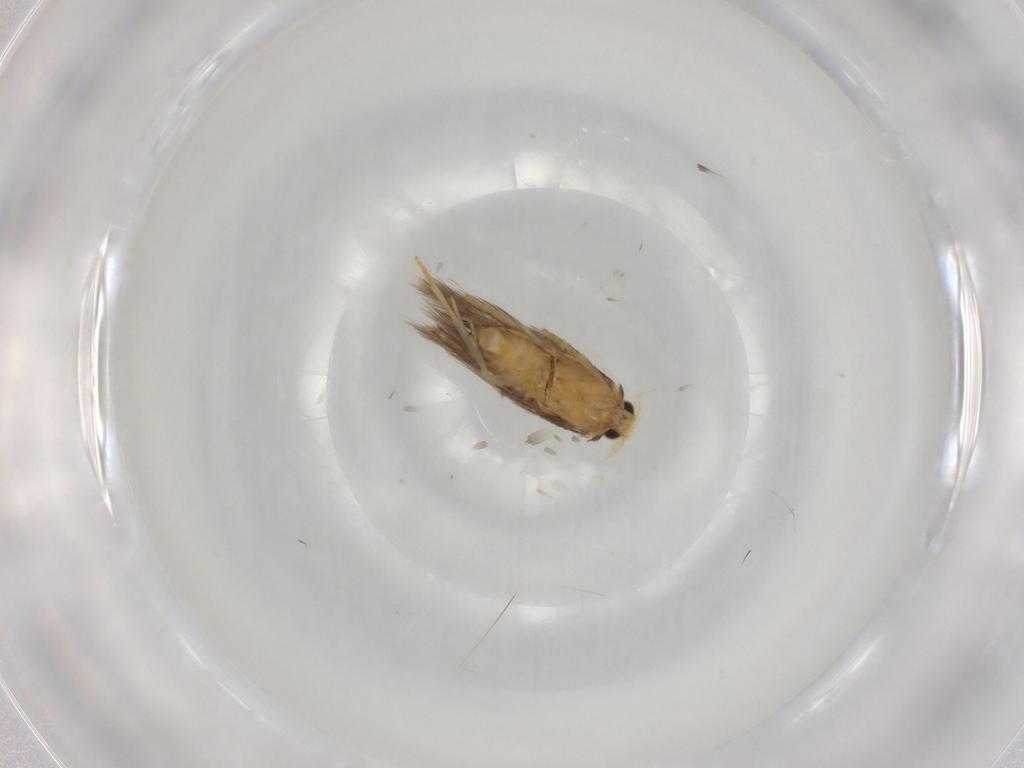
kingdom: Animalia
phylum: Arthropoda
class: Insecta
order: Lepidoptera
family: Nepticulidae
